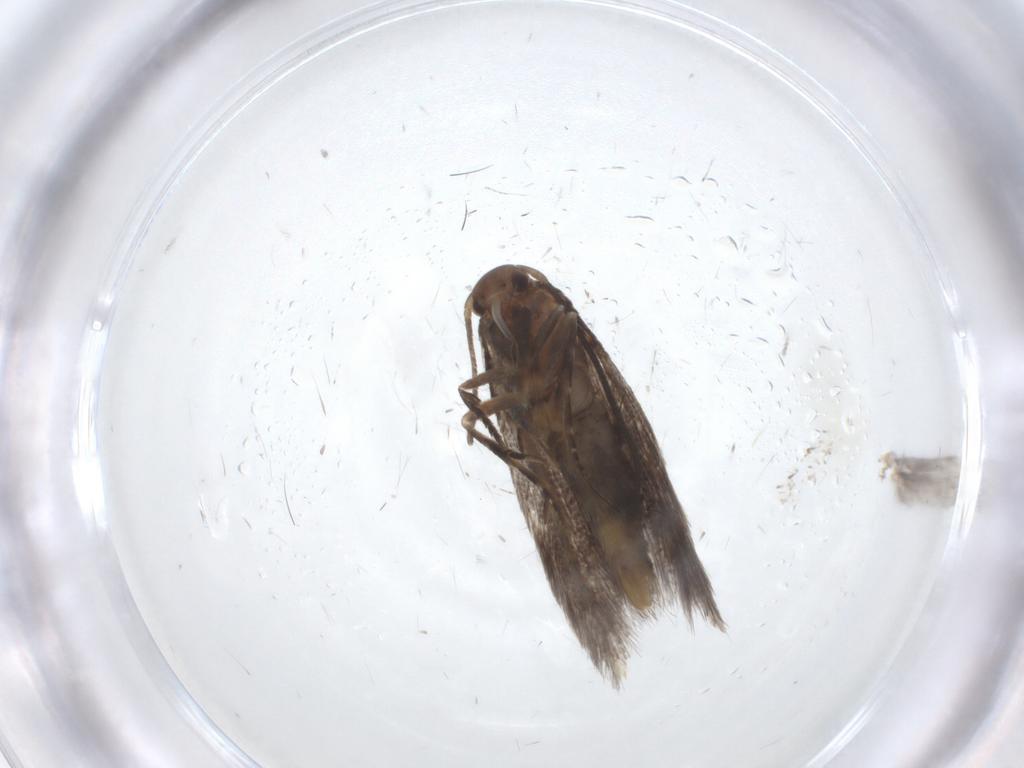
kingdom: Animalia
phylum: Arthropoda
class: Insecta
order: Lepidoptera
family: Elachistidae
